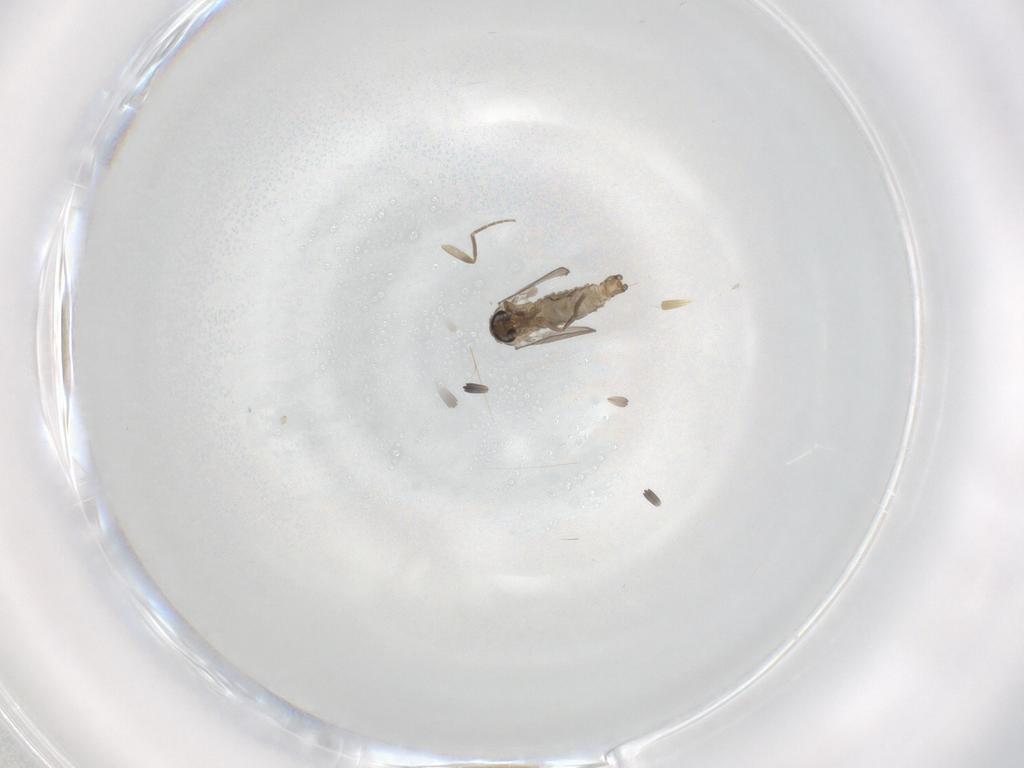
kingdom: Animalia
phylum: Arthropoda
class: Insecta
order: Diptera
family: Psychodidae
